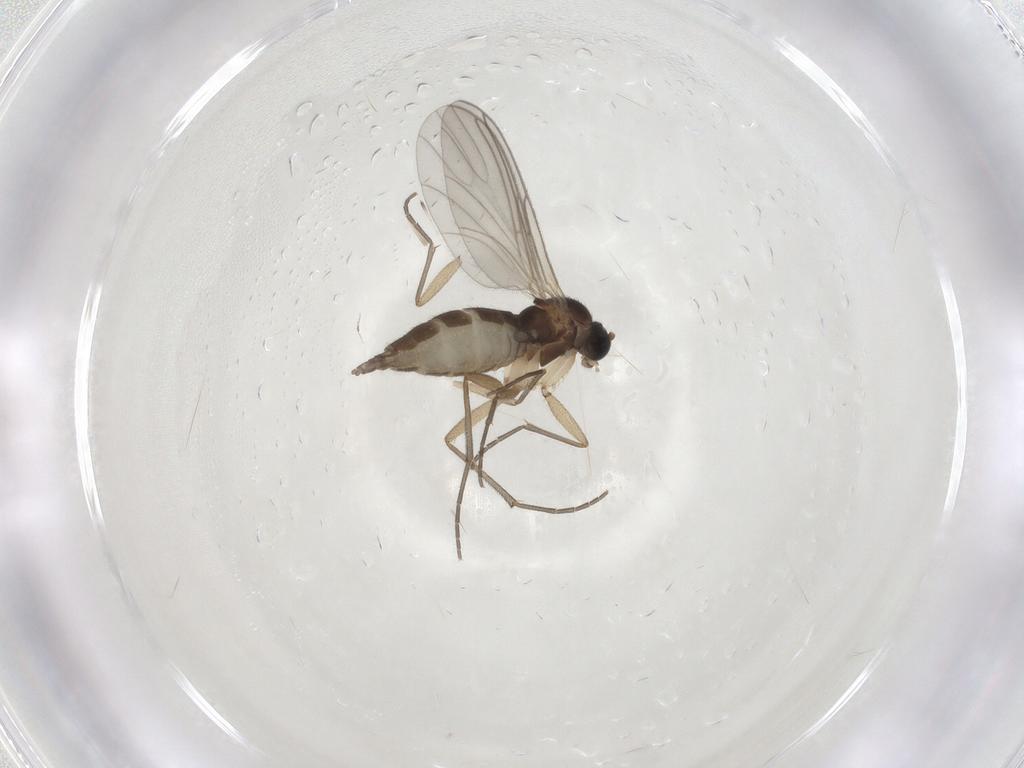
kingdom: Animalia
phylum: Arthropoda
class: Insecta
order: Diptera
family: Sciaridae
